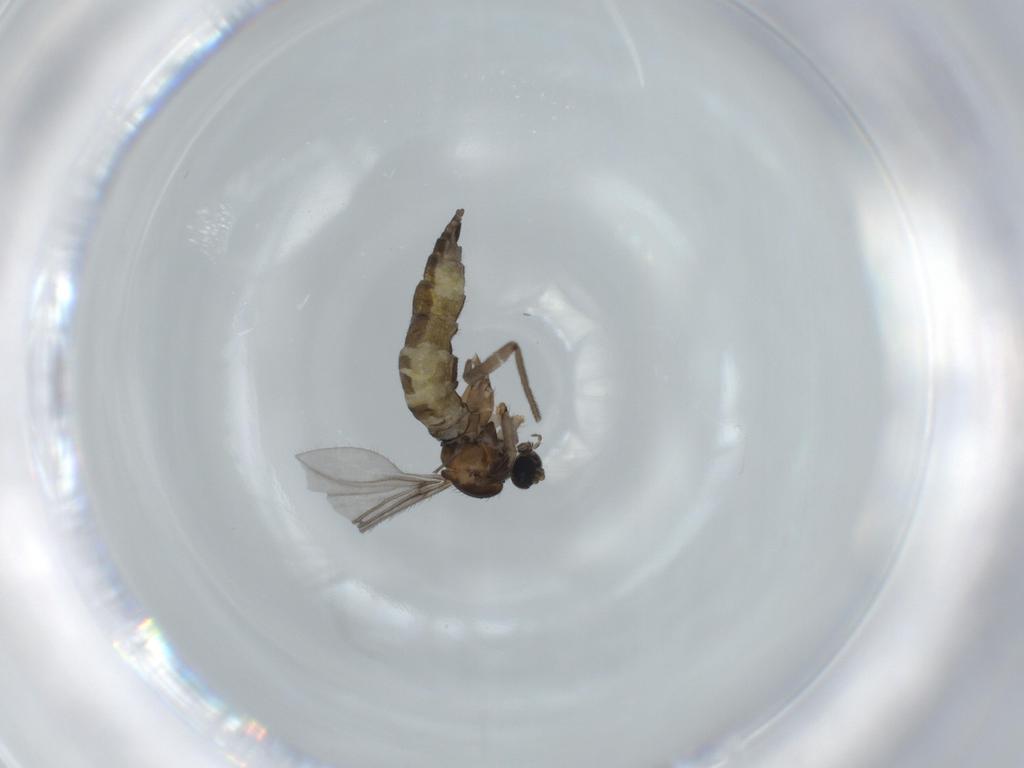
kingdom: Animalia
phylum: Arthropoda
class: Insecta
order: Diptera
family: Sciaridae
